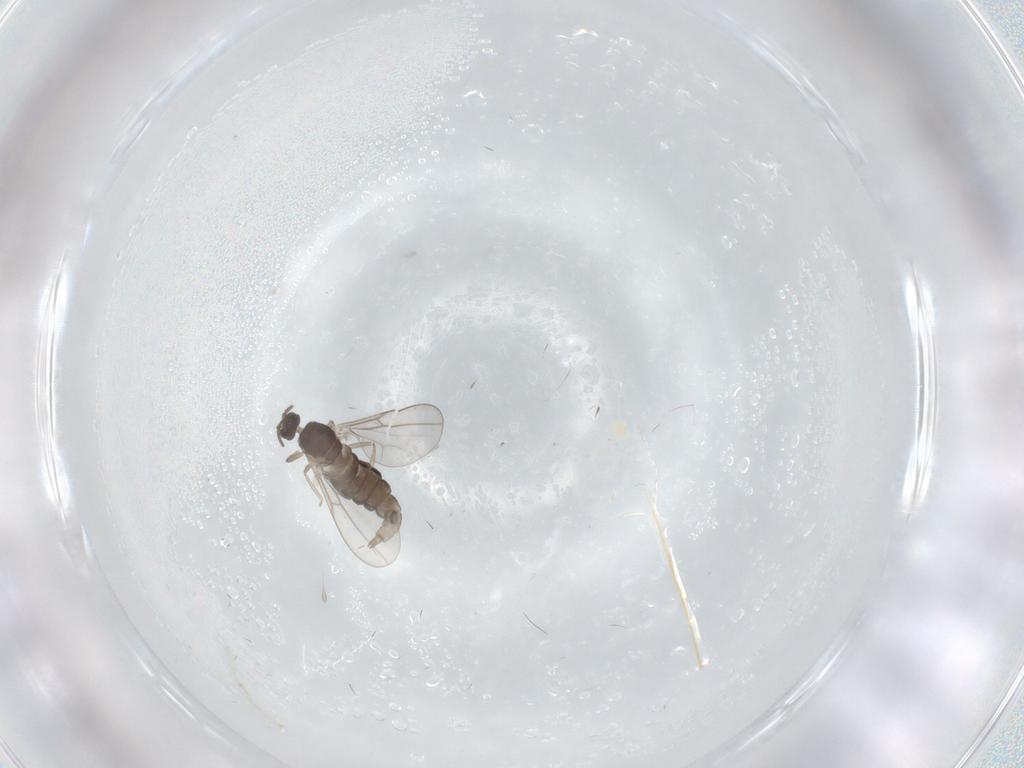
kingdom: Animalia
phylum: Arthropoda
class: Insecta
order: Diptera
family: Cecidomyiidae
